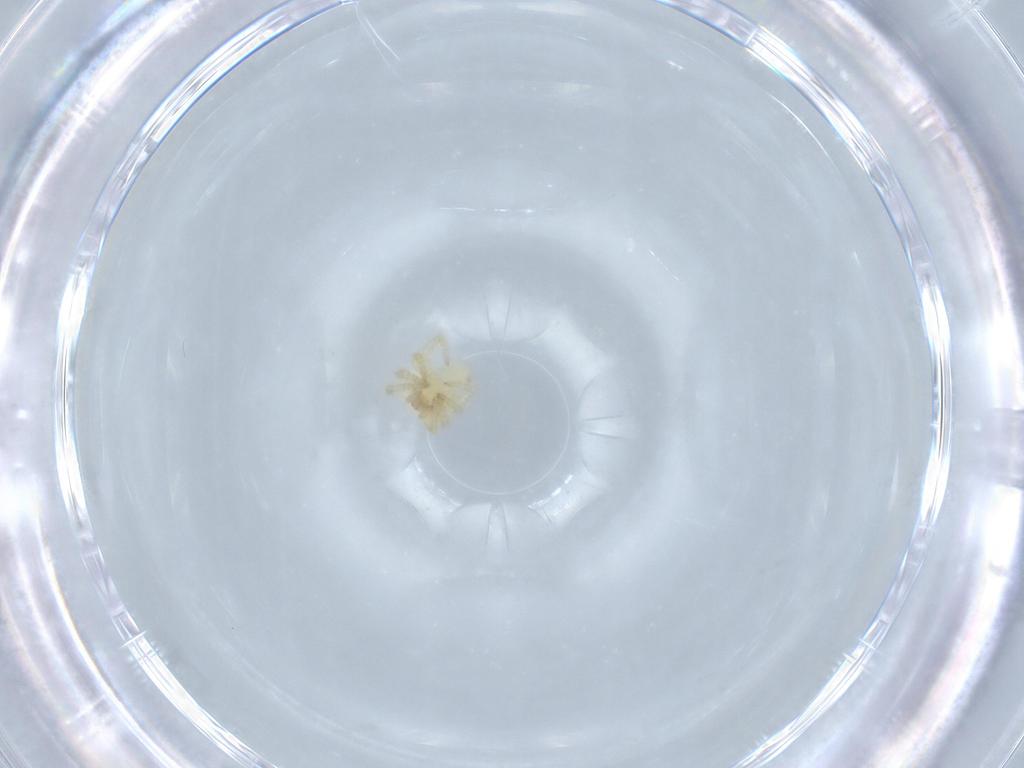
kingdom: Animalia
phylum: Arthropoda
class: Arachnida
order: Araneae
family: Theridiidae
